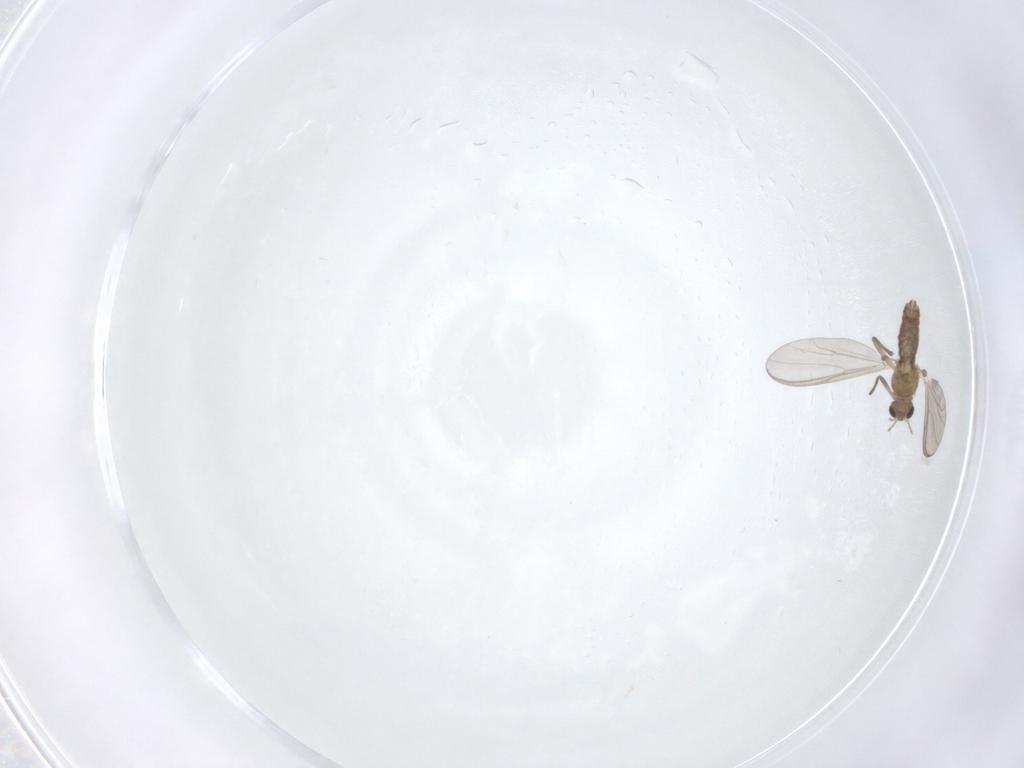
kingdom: Animalia
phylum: Arthropoda
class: Insecta
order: Diptera
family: Chironomidae
